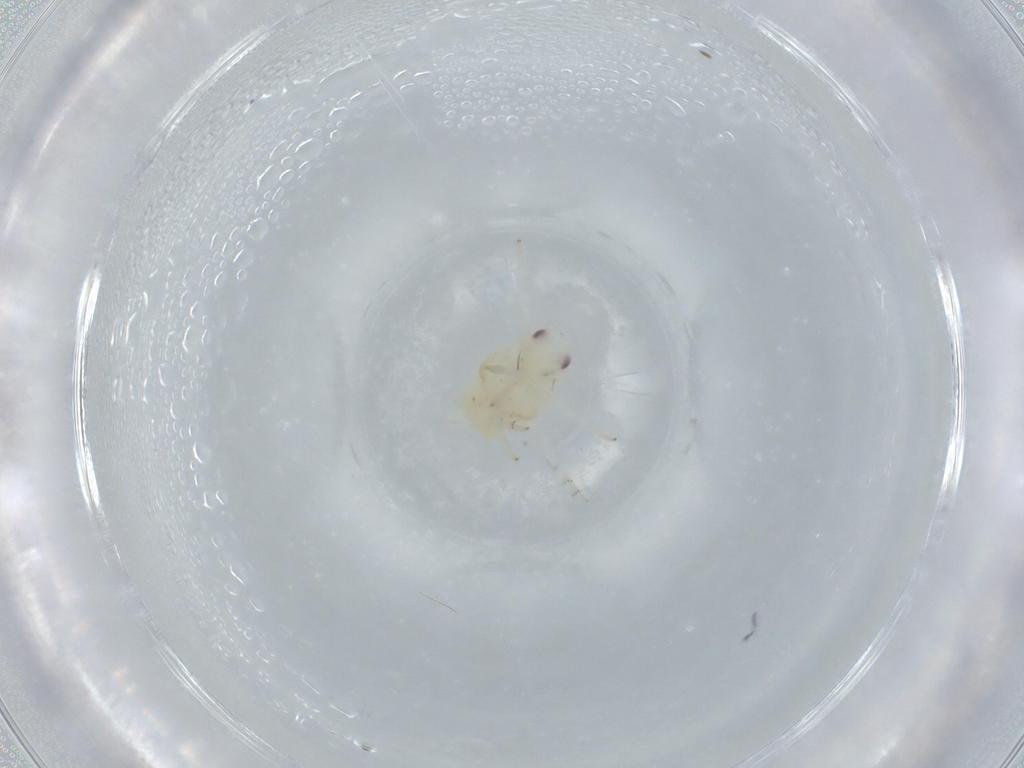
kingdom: Animalia
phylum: Arthropoda
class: Insecta
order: Hemiptera
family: Flatidae
